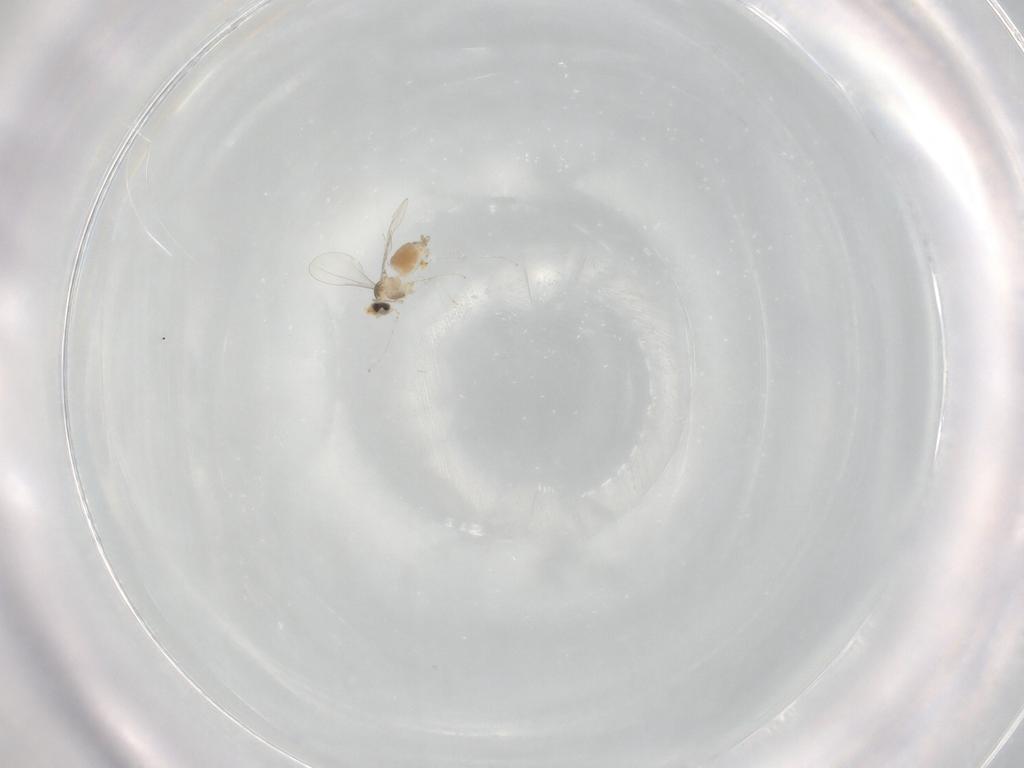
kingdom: Animalia
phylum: Arthropoda
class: Insecta
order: Diptera
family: Cecidomyiidae
